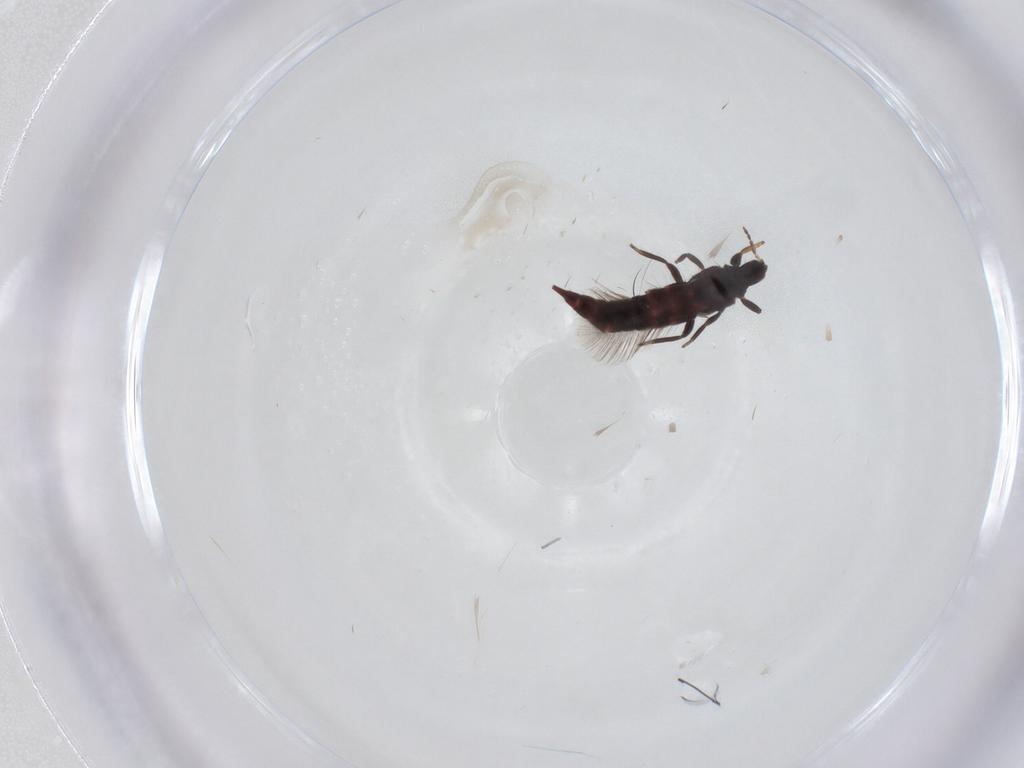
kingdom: Animalia
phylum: Arthropoda
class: Insecta
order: Thysanoptera
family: Phlaeothripidae
